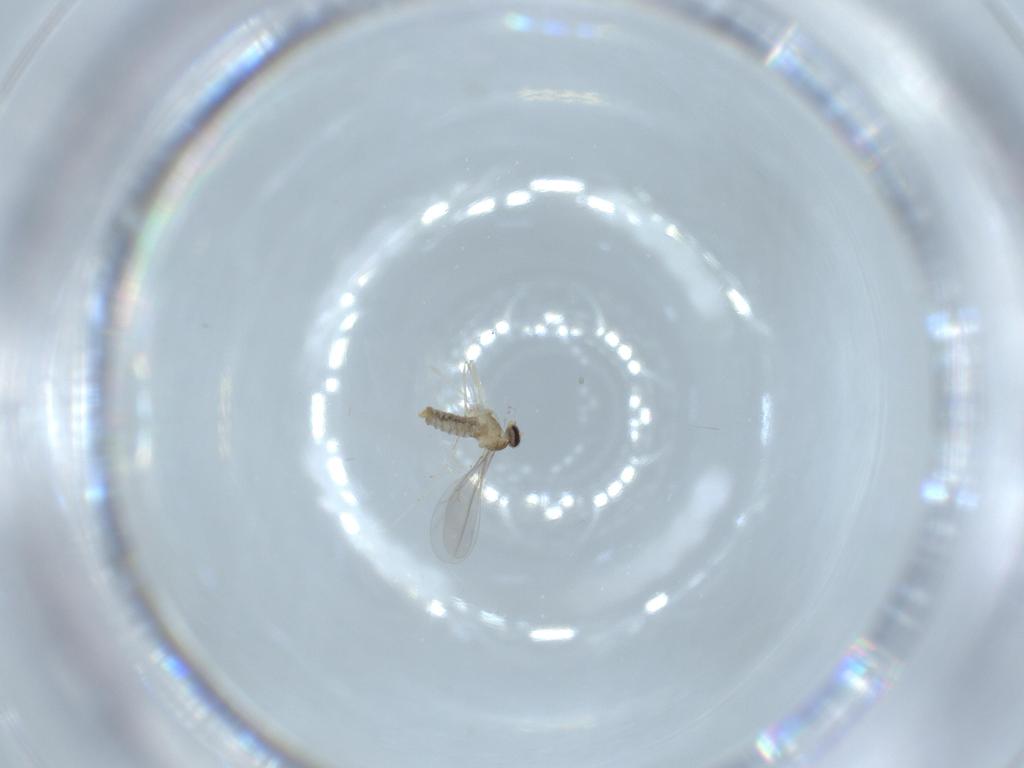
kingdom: Animalia
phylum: Arthropoda
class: Insecta
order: Diptera
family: Cecidomyiidae
